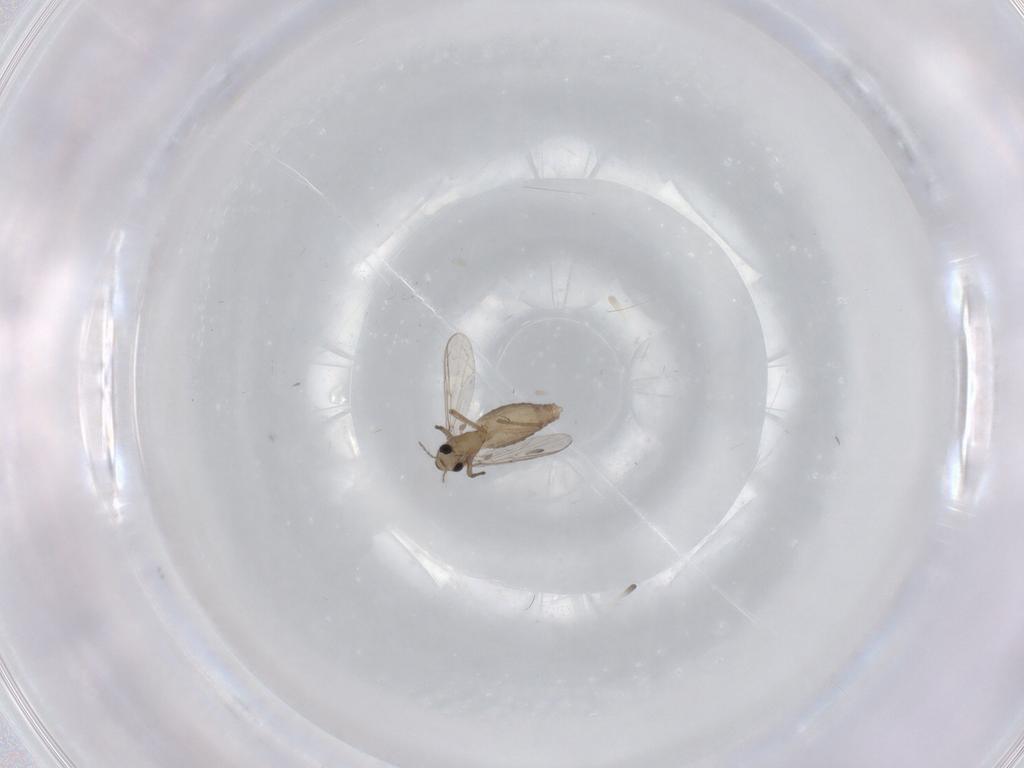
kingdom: Animalia
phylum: Arthropoda
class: Insecta
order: Diptera
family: Chironomidae
